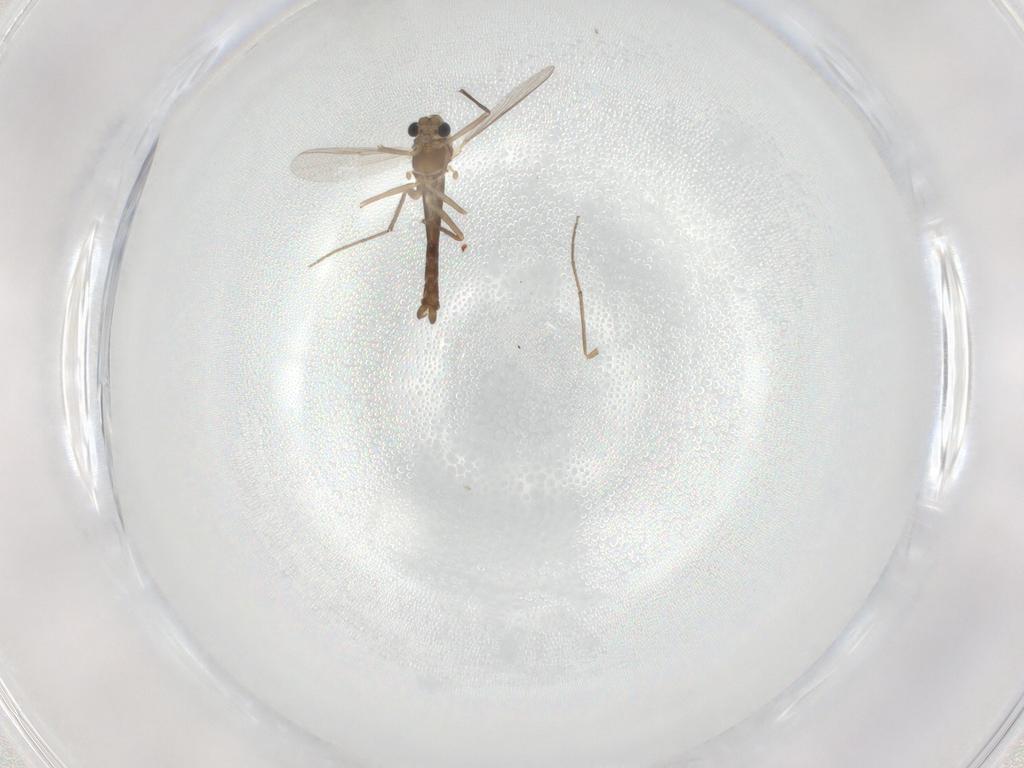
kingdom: Animalia
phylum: Arthropoda
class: Insecta
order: Diptera
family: Chironomidae
